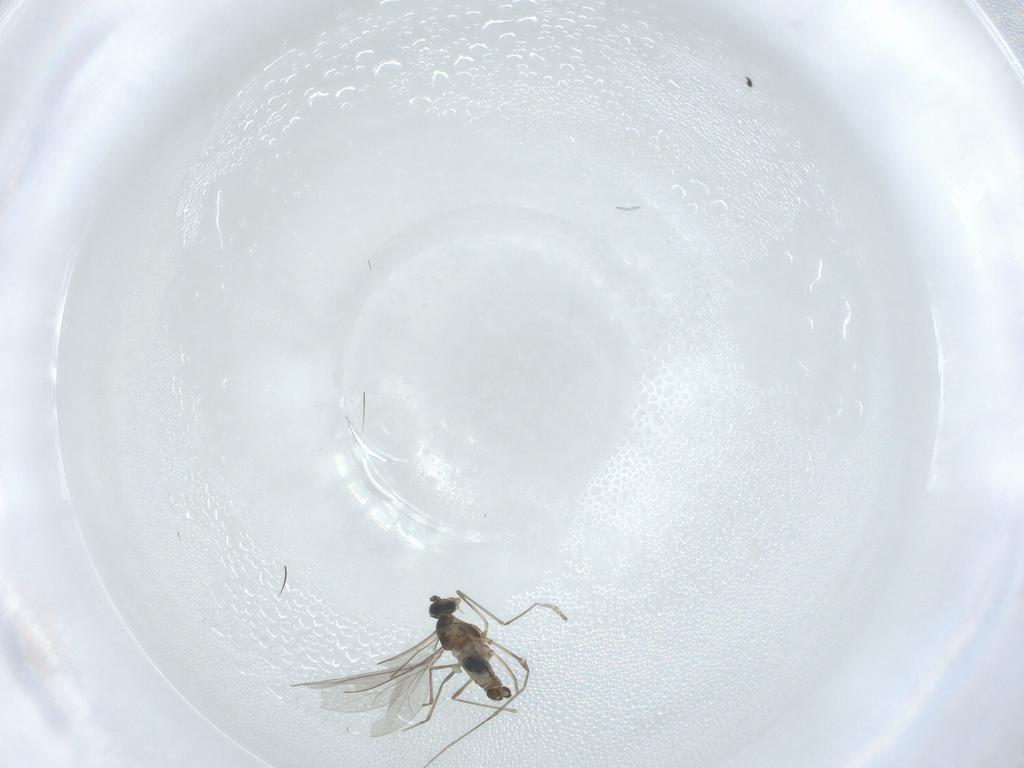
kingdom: Animalia
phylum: Arthropoda
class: Insecta
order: Diptera
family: Cecidomyiidae
